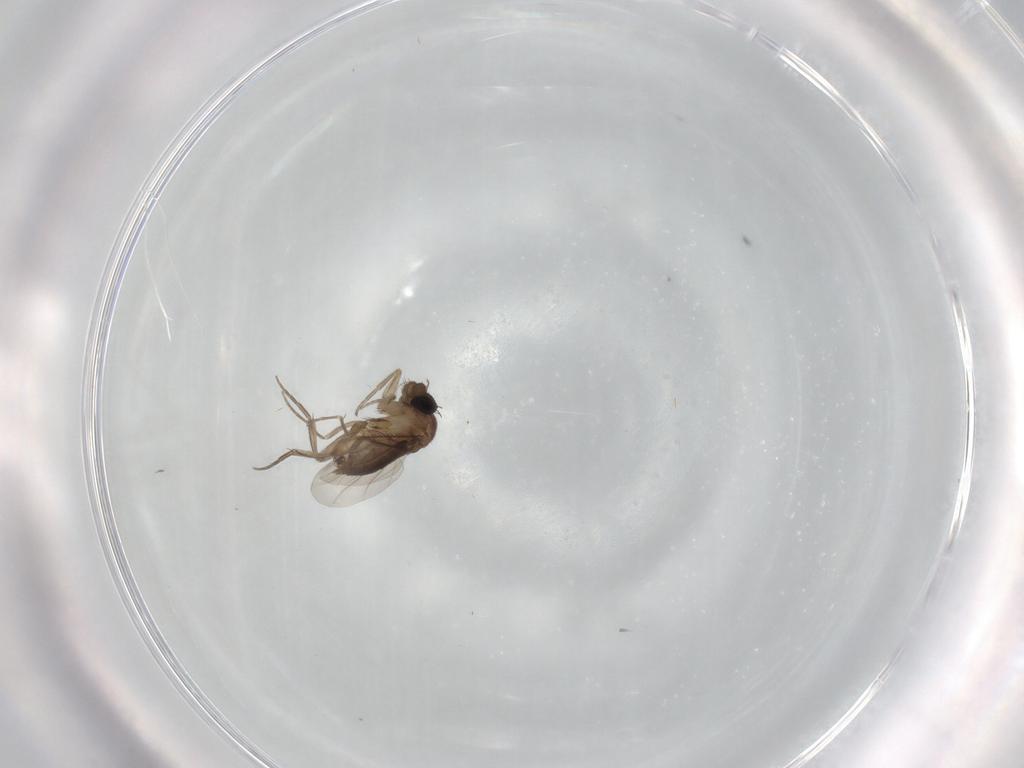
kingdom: Animalia
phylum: Arthropoda
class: Insecta
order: Diptera
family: Phoridae
